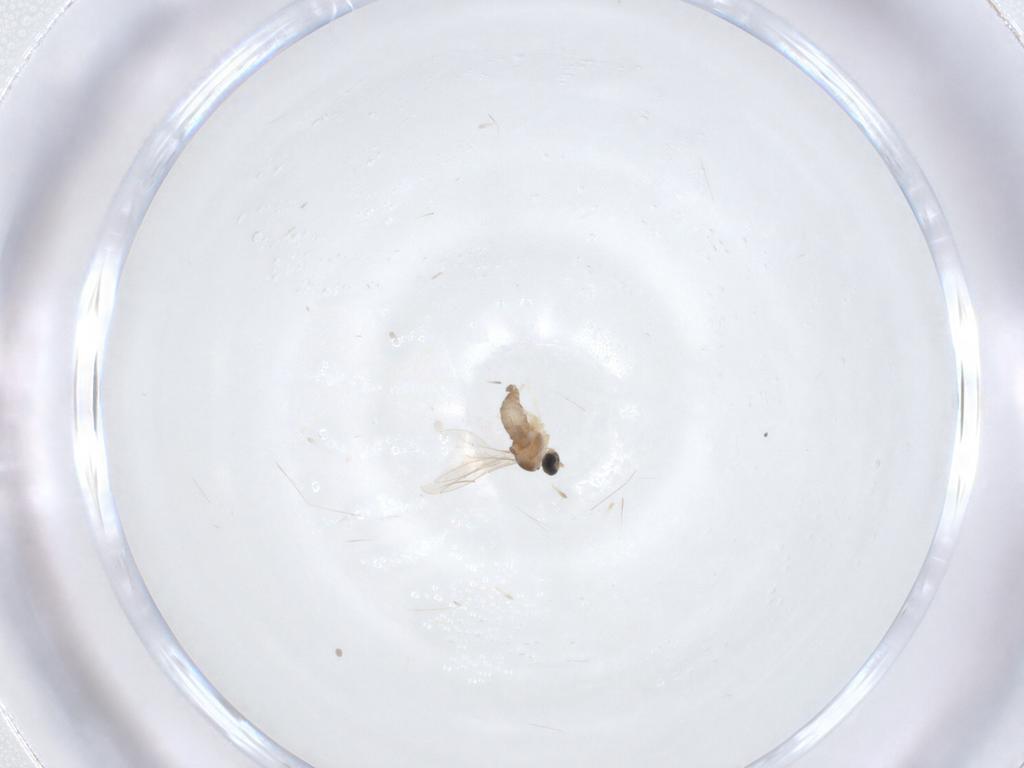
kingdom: Animalia
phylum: Arthropoda
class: Insecta
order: Diptera
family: Cecidomyiidae
